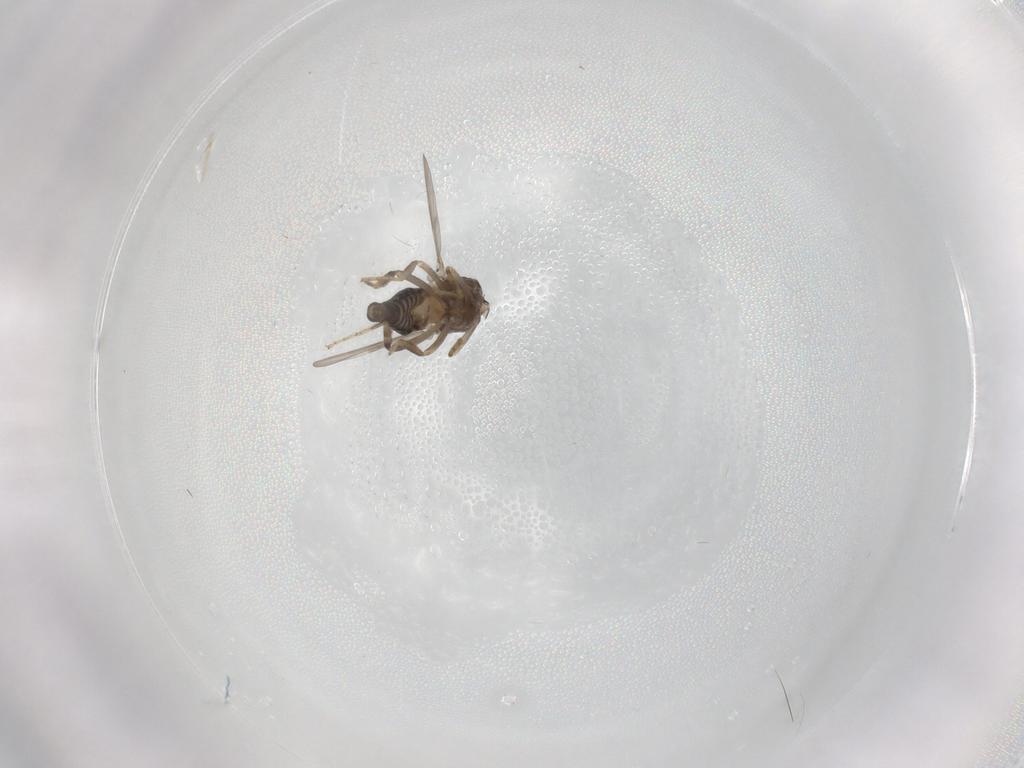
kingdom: Animalia
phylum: Arthropoda
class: Insecta
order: Diptera
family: Ceratopogonidae
